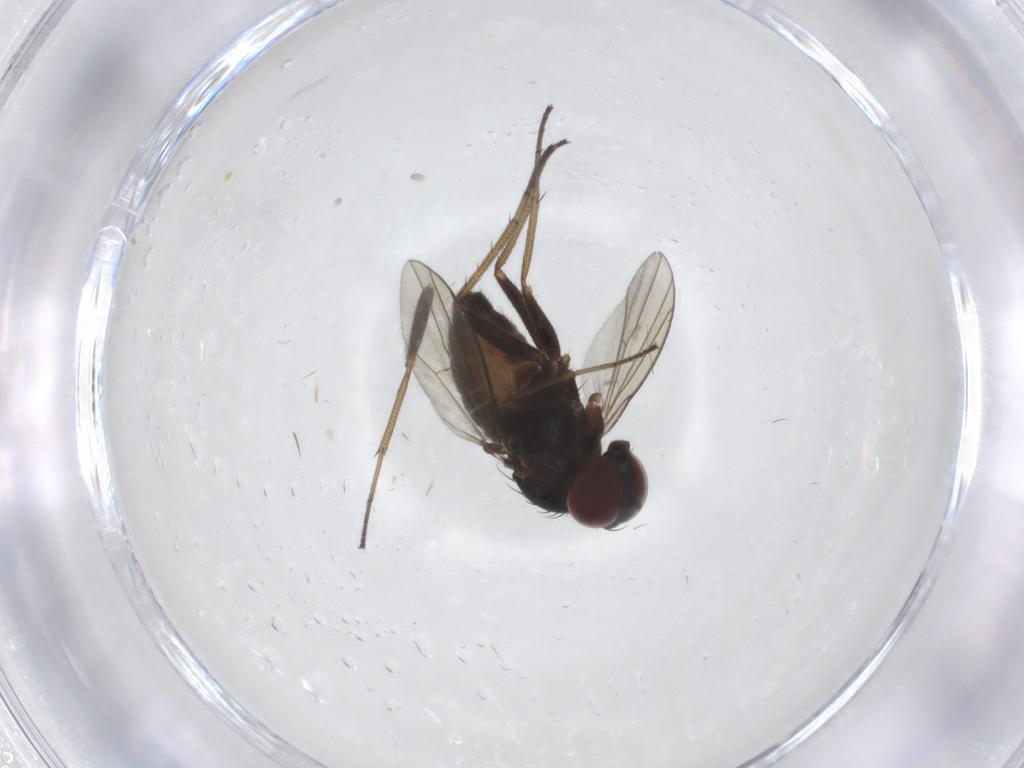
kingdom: Animalia
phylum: Arthropoda
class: Insecta
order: Diptera
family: Dolichopodidae
